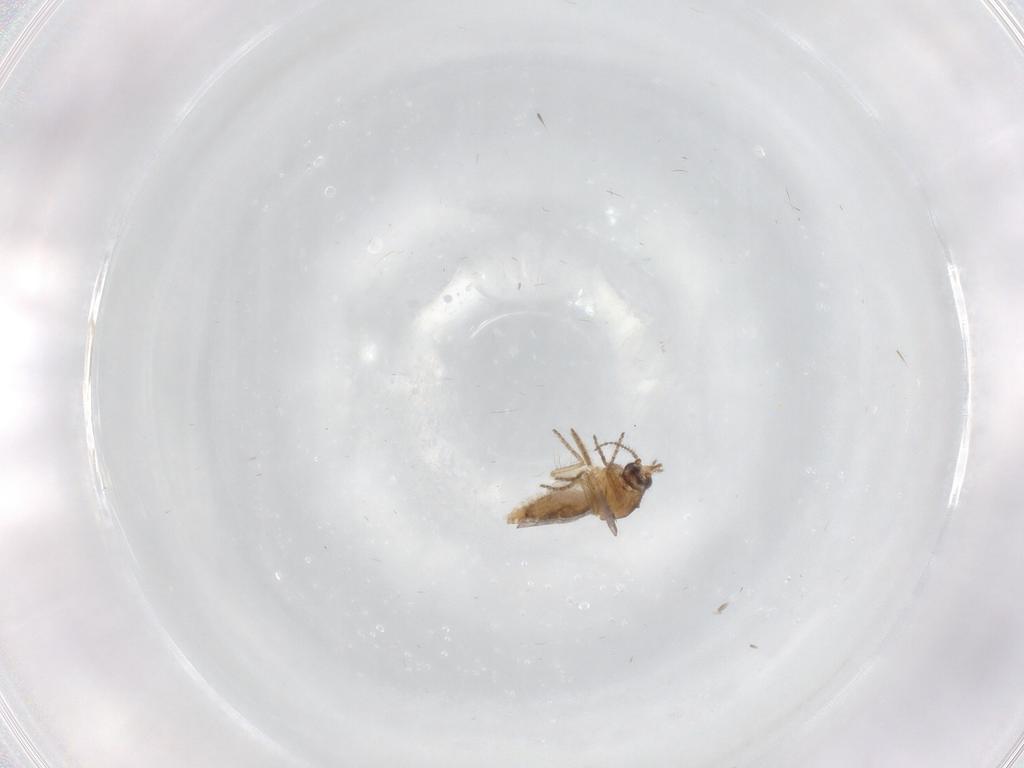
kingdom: Animalia
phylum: Arthropoda
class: Insecta
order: Diptera
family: Ceratopogonidae
